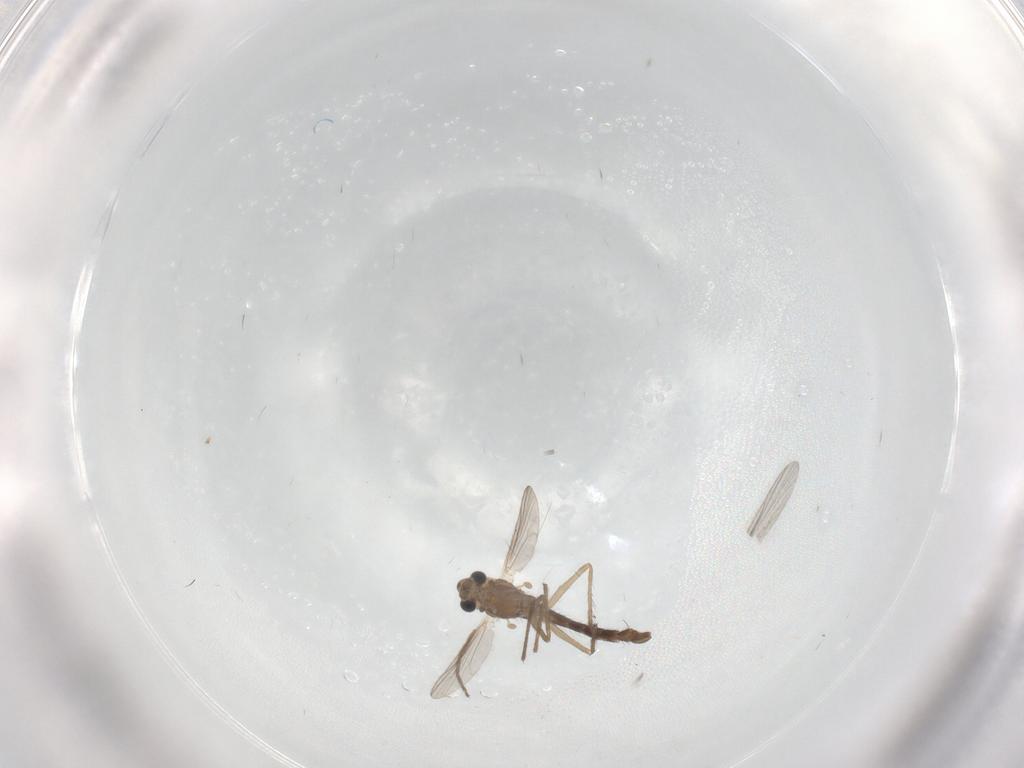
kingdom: Animalia
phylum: Arthropoda
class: Insecta
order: Diptera
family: Chironomidae
